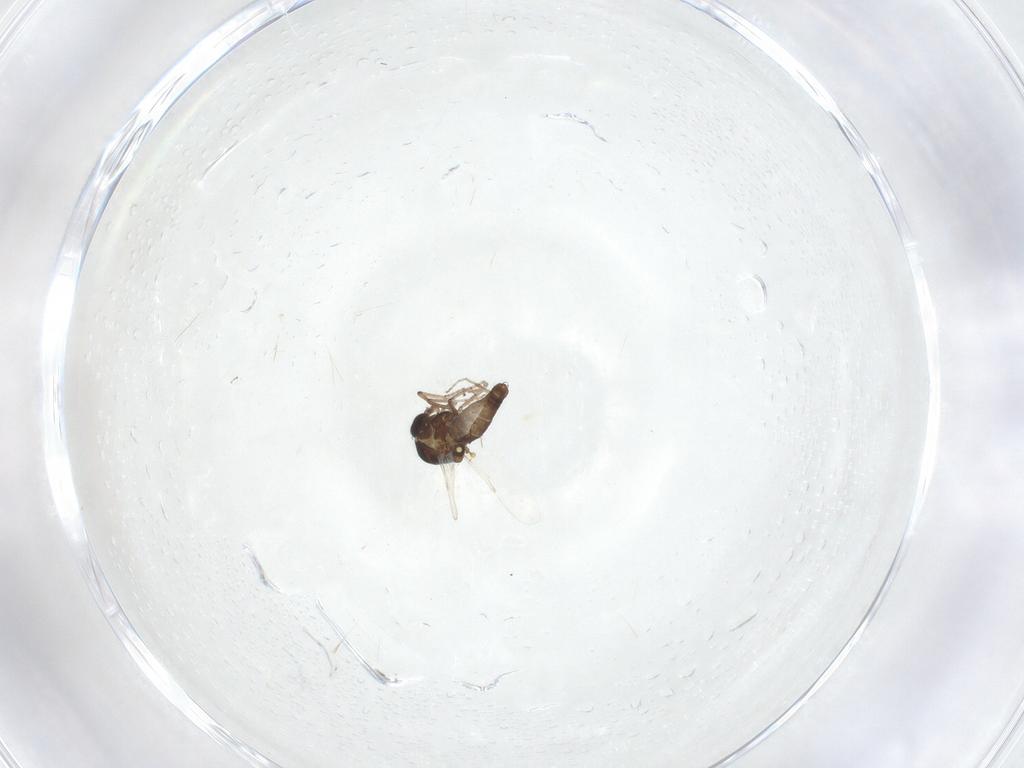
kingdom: Animalia
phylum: Arthropoda
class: Insecta
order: Diptera
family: Ceratopogonidae
